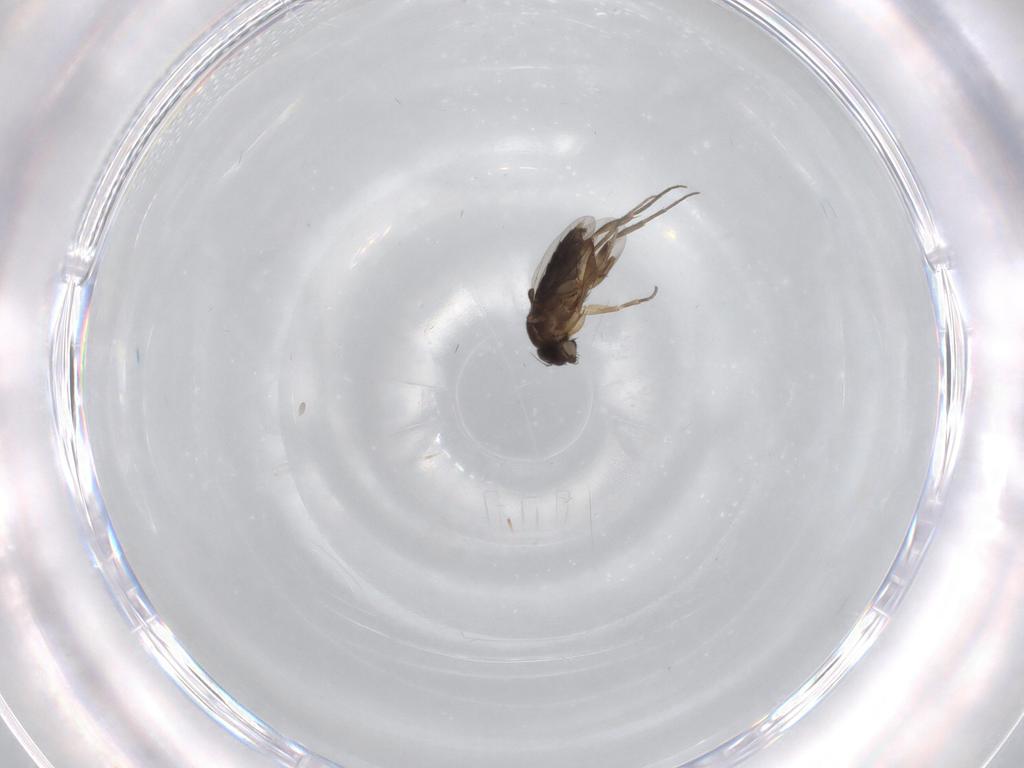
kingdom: Animalia
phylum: Arthropoda
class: Insecta
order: Diptera
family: Phoridae
